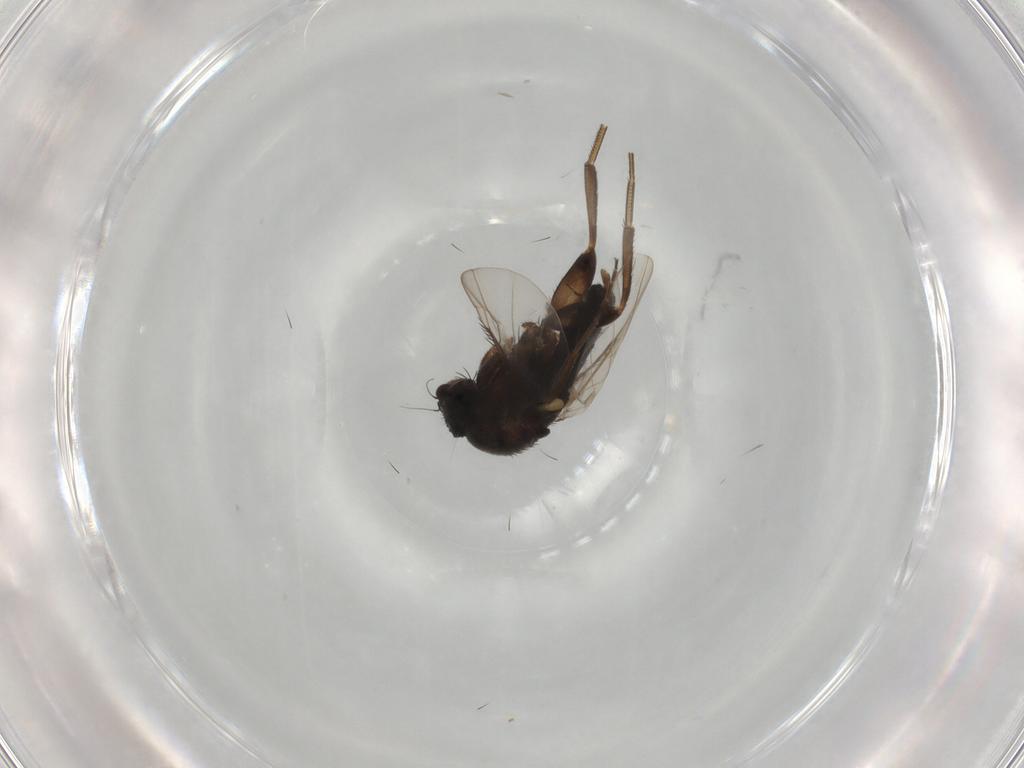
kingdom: Animalia
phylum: Arthropoda
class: Insecta
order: Diptera
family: Phoridae
